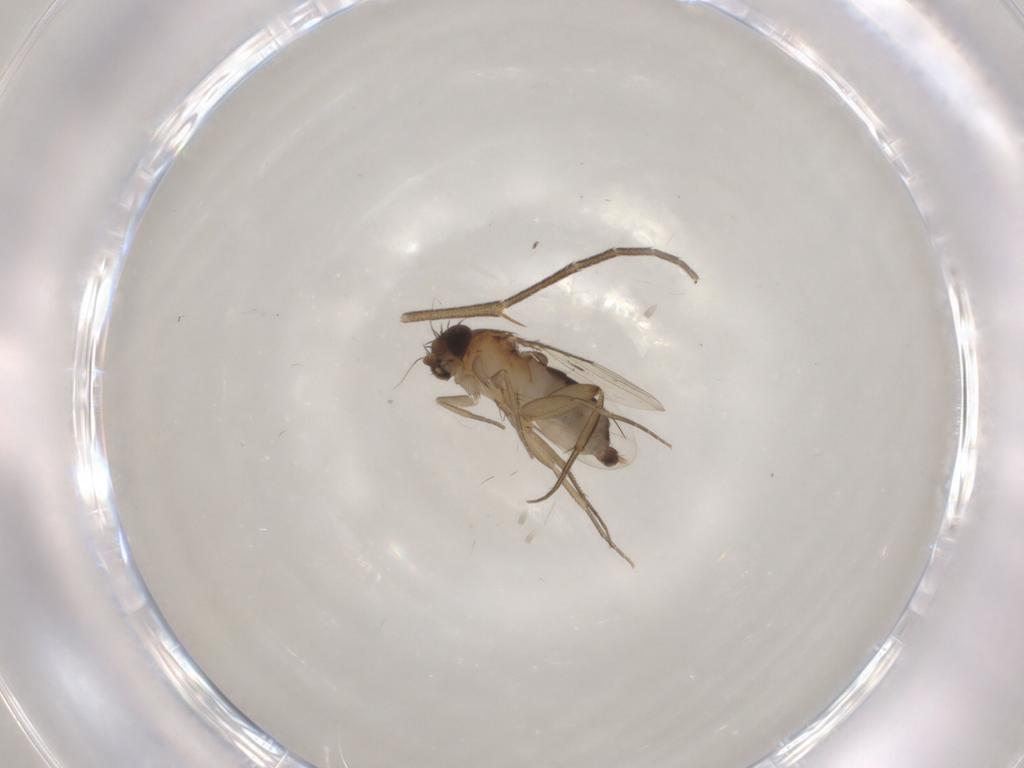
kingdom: Animalia
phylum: Arthropoda
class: Insecta
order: Diptera
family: Phoridae
